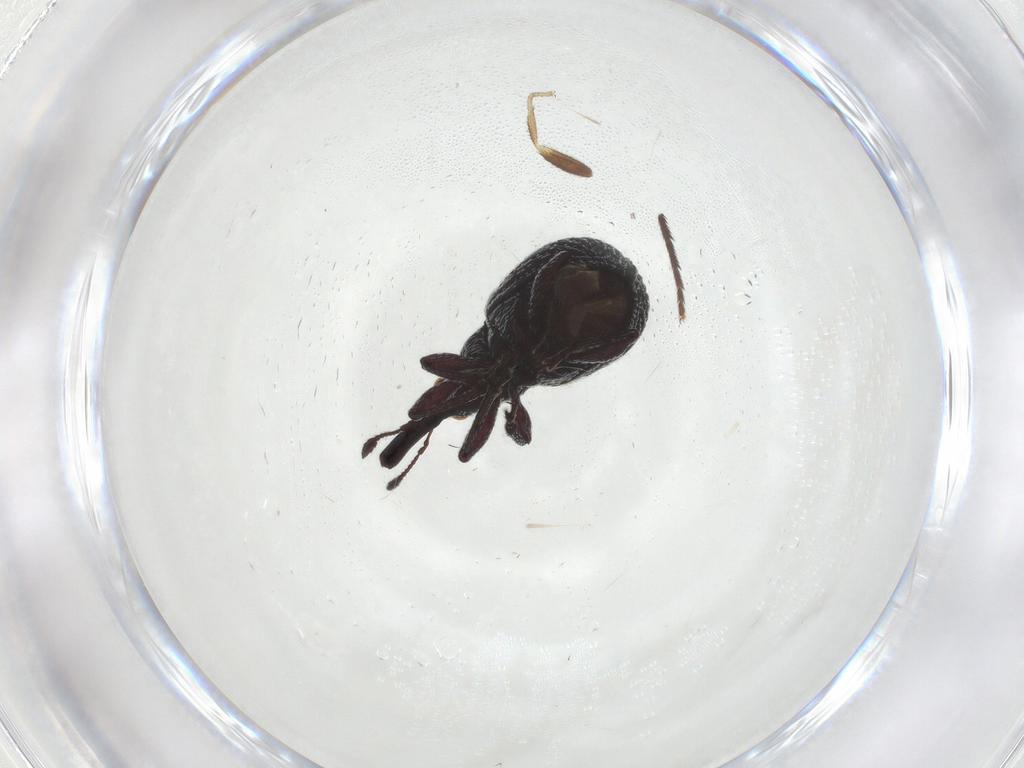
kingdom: Animalia
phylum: Arthropoda
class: Insecta
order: Coleoptera
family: Brentidae
